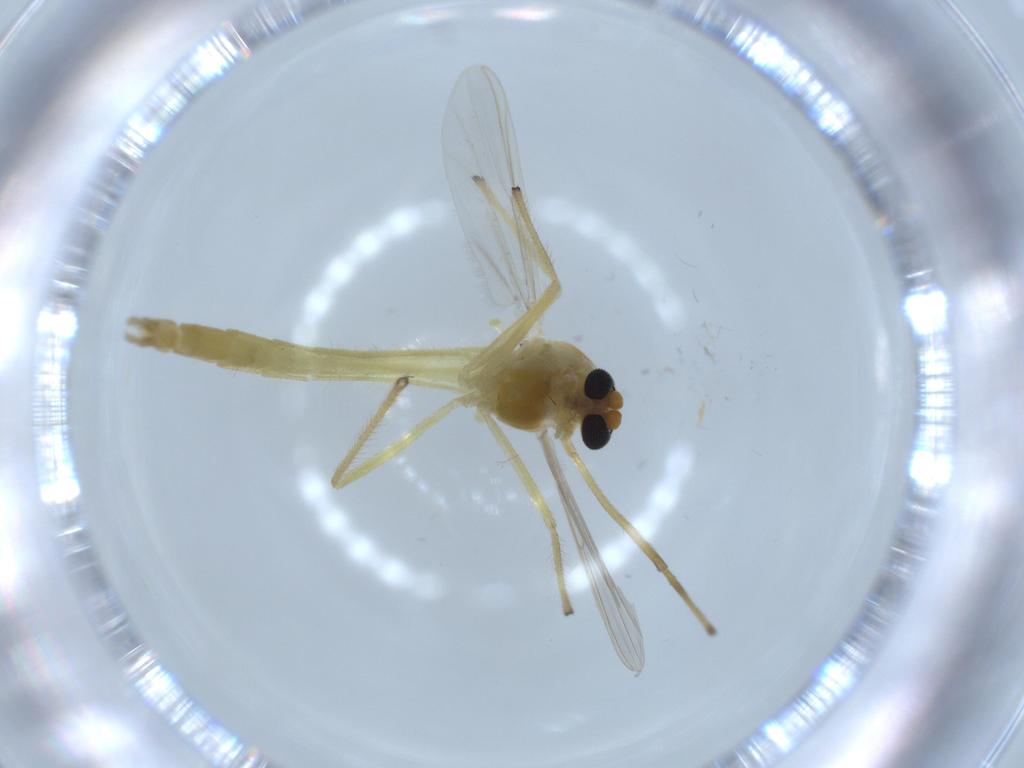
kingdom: Animalia
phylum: Arthropoda
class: Insecta
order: Diptera
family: Chironomidae
